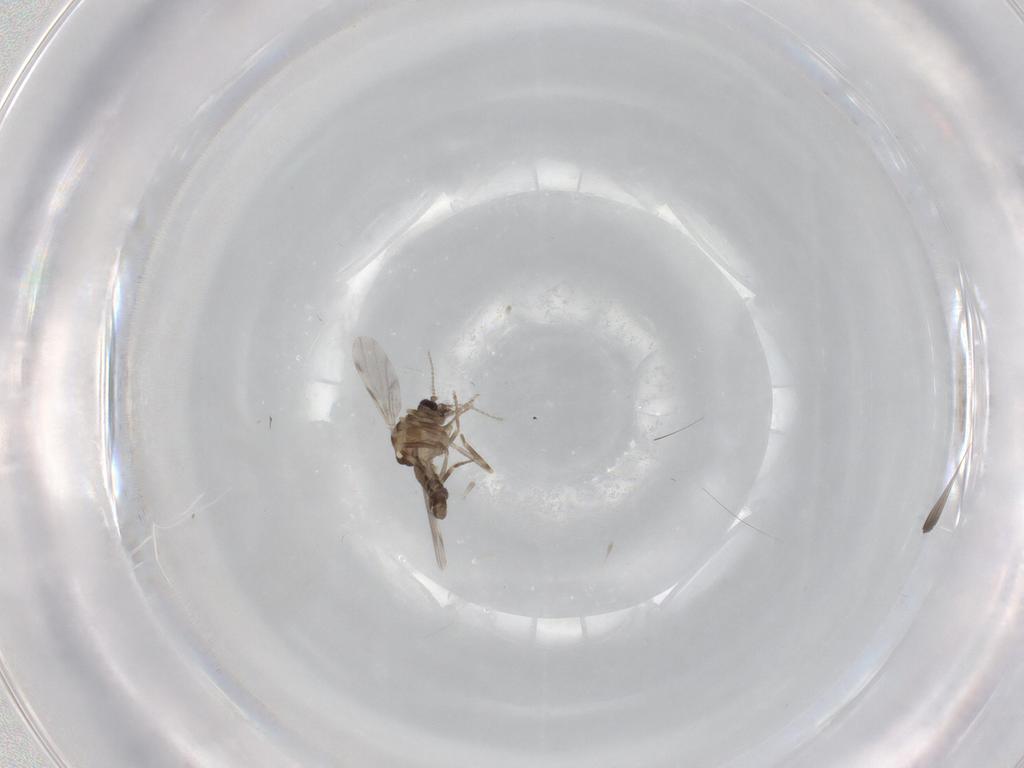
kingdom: Animalia
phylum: Arthropoda
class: Insecta
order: Diptera
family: Ceratopogonidae
